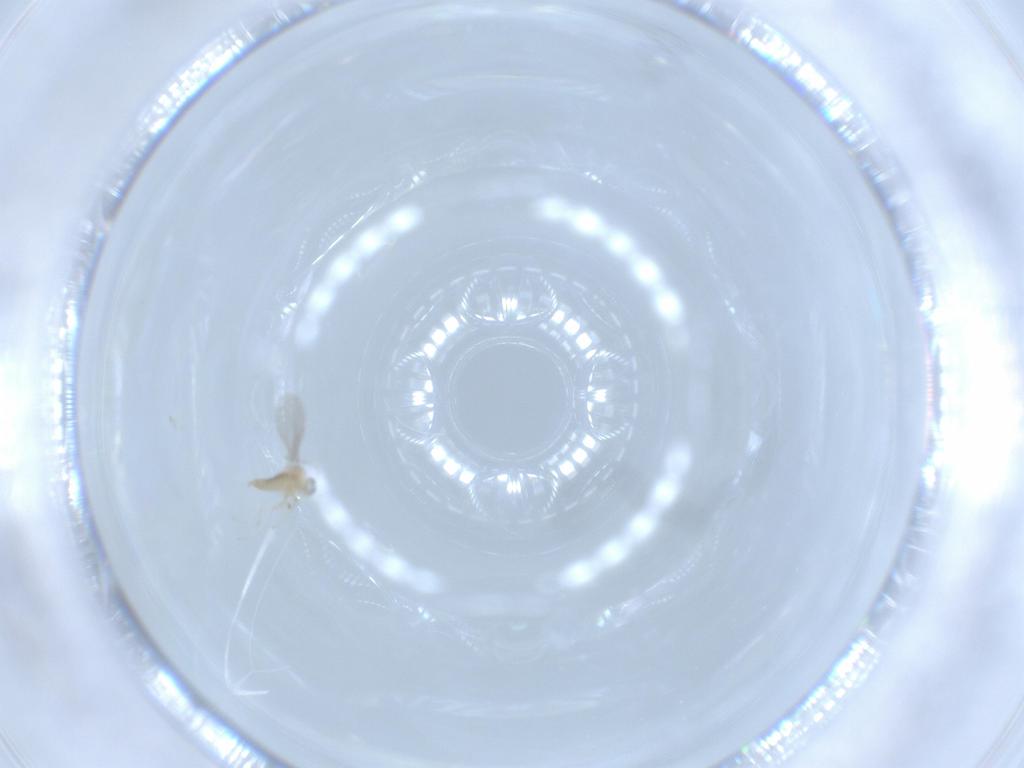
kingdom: Animalia
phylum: Arthropoda
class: Insecta
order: Diptera
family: Cecidomyiidae
